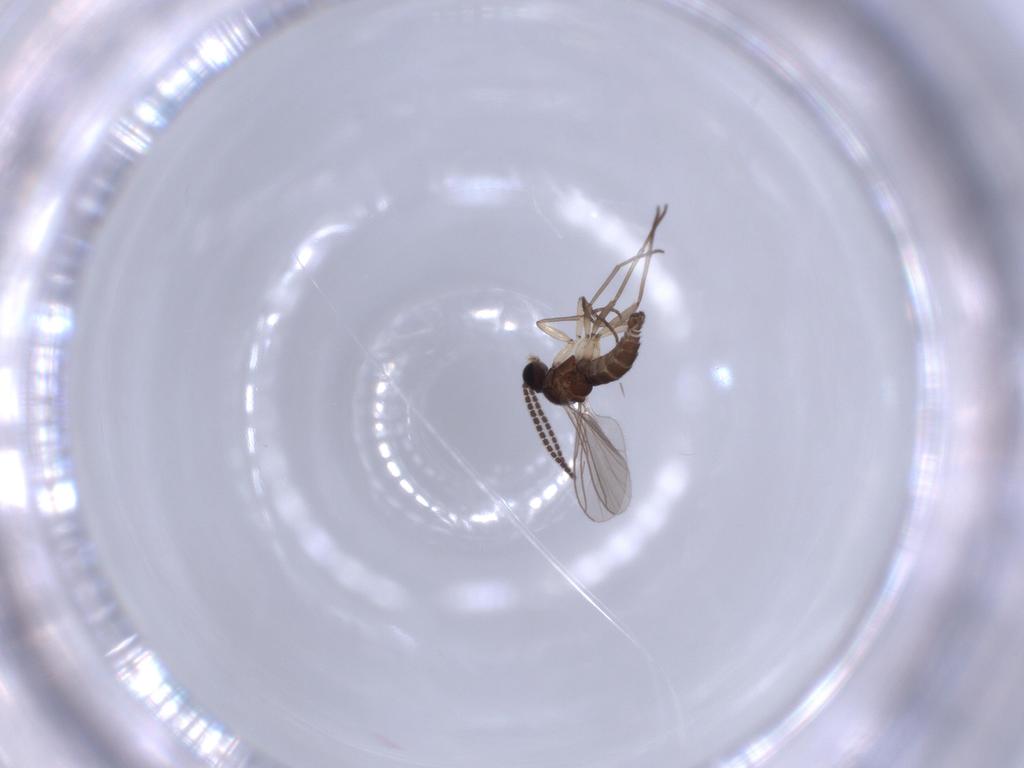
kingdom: Animalia
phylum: Arthropoda
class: Insecta
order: Diptera
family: Sciaridae
